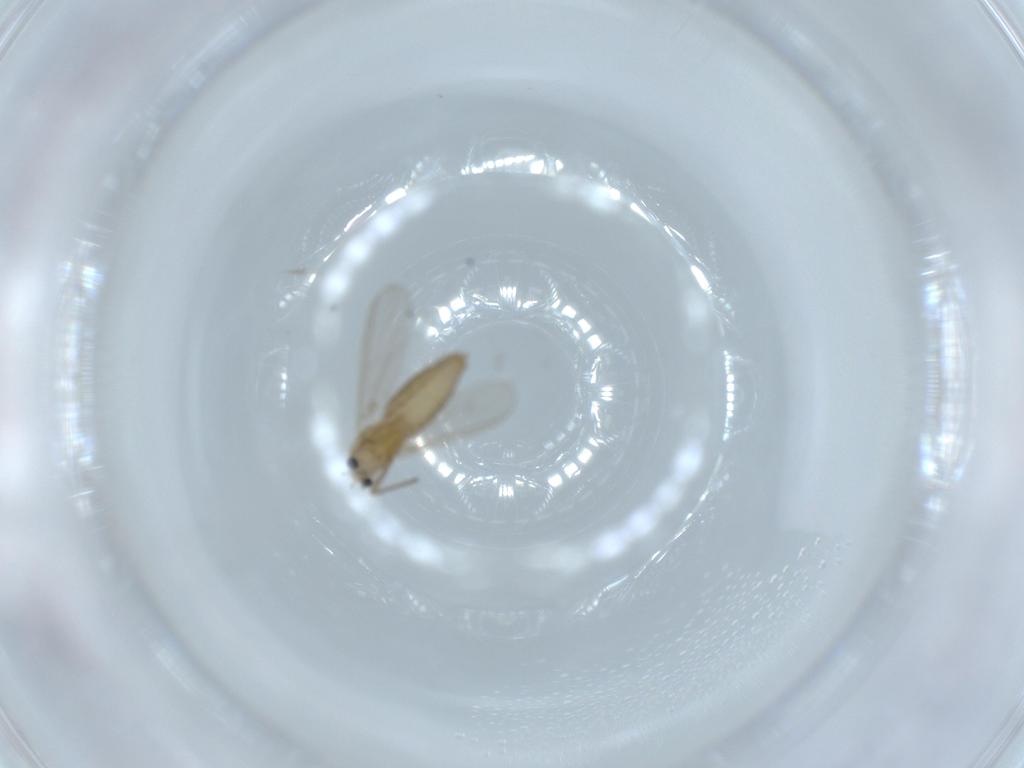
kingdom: Animalia
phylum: Arthropoda
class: Insecta
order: Diptera
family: Chironomidae
